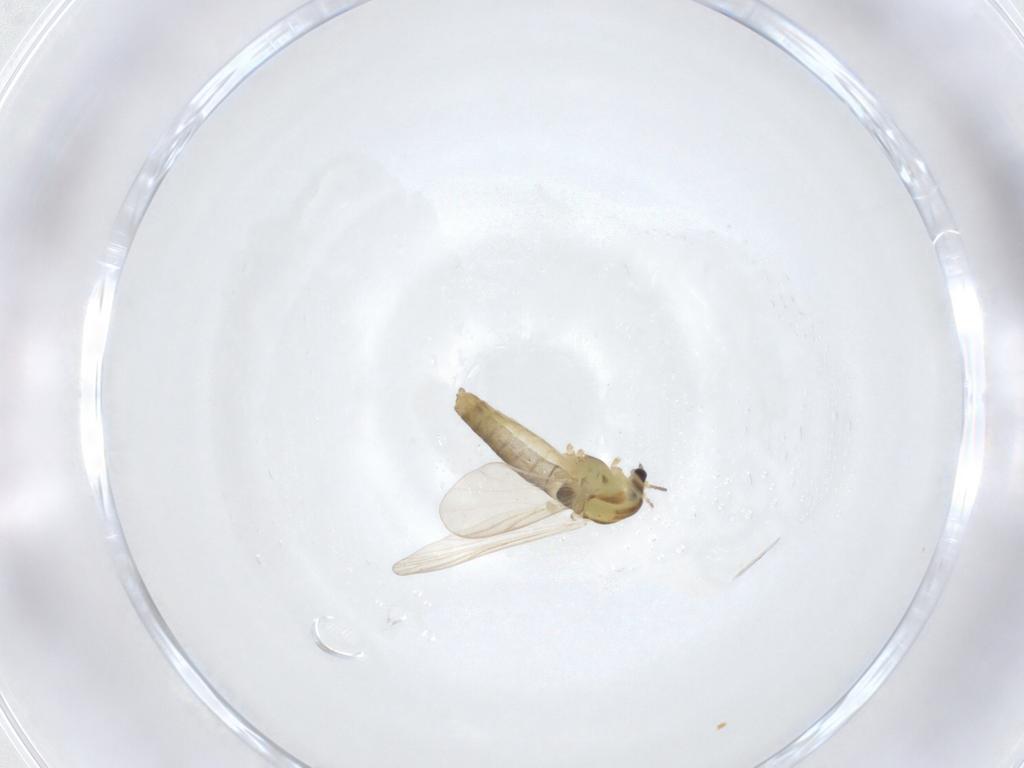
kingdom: Animalia
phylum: Arthropoda
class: Insecta
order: Diptera
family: Chironomidae
